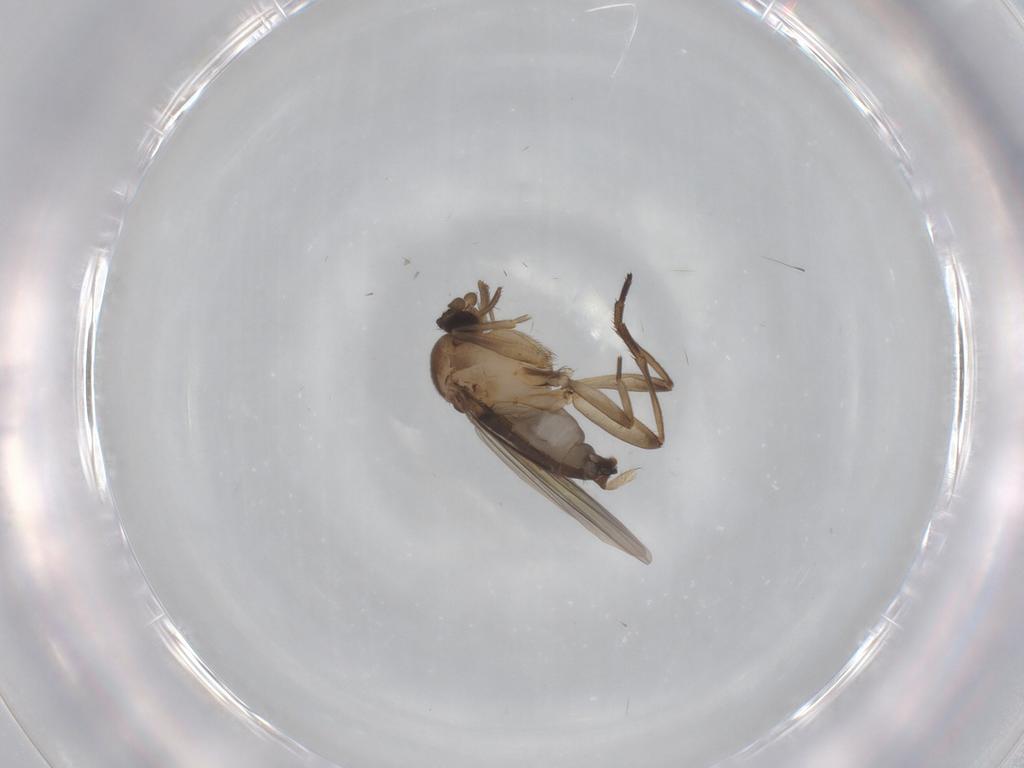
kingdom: Animalia
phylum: Arthropoda
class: Insecta
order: Diptera
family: Phoridae
